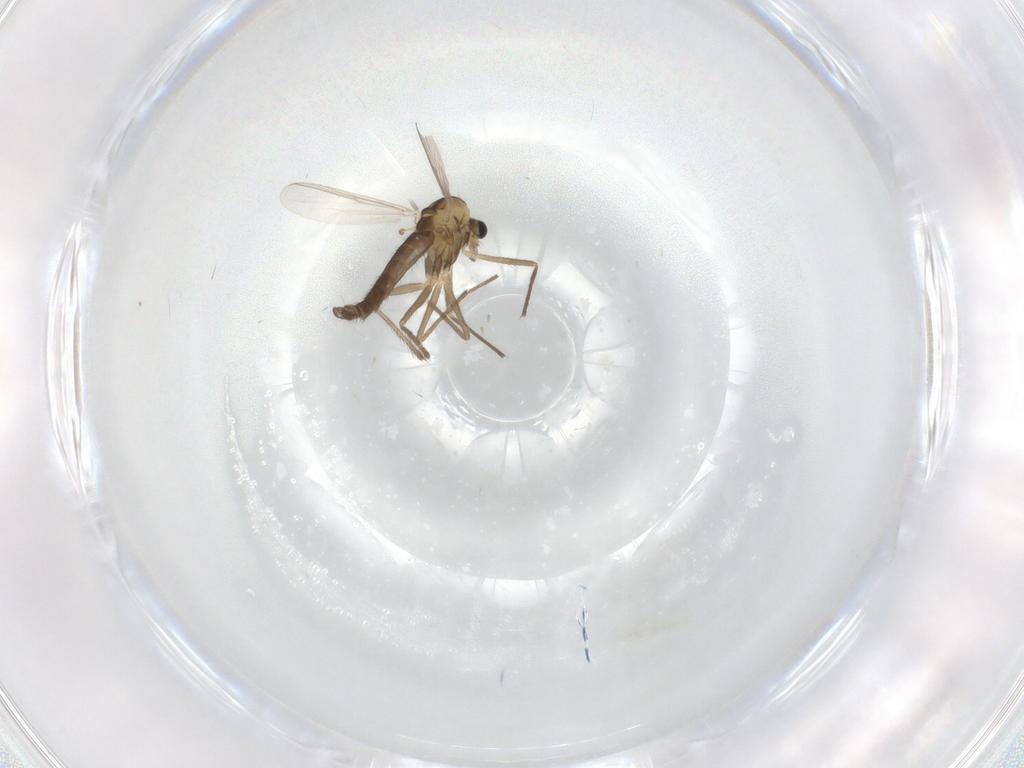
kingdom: Animalia
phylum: Arthropoda
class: Insecta
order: Diptera
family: Chironomidae
